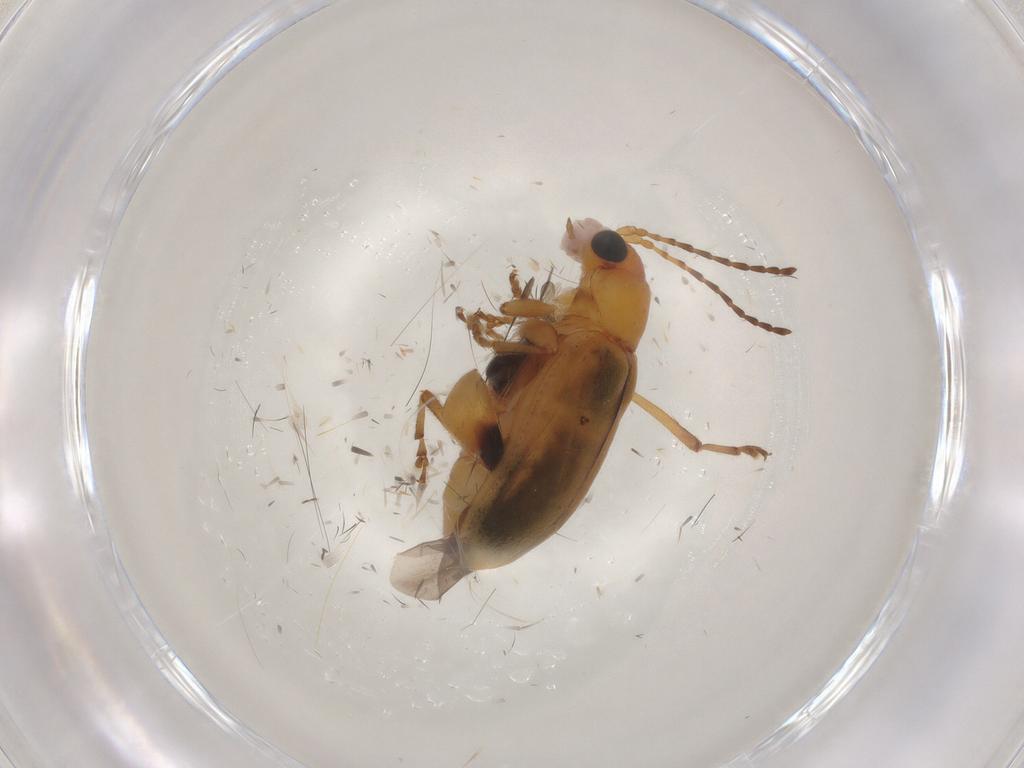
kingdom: Animalia
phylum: Arthropoda
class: Insecta
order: Coleoptera
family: Chrysomelidae
